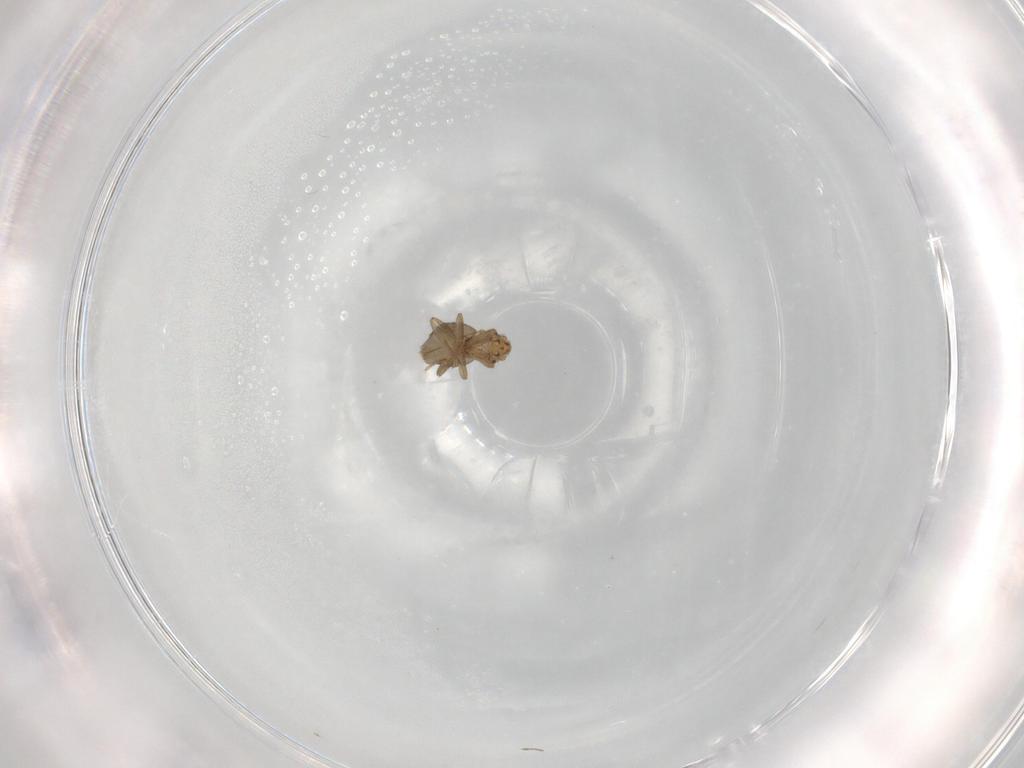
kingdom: Animalia
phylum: Arthropoda
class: Insecta
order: Diptera
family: Phoridae
